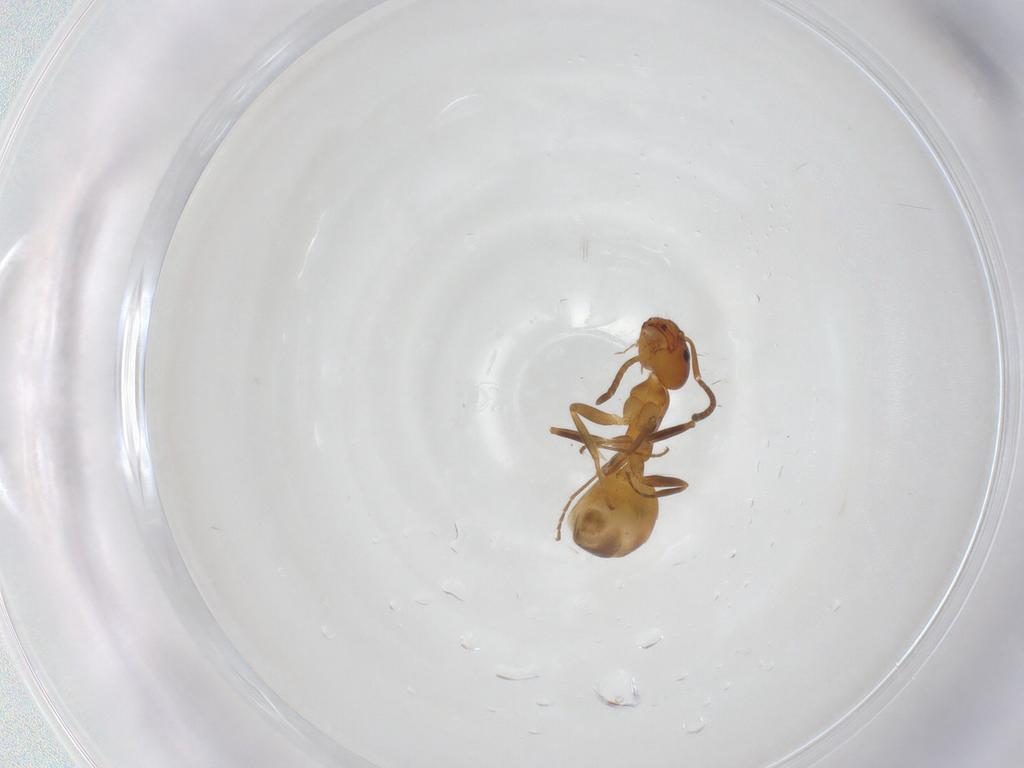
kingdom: Animalia
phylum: Arthropoda
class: Insecta
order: Hymenoptera
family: Formicidae
